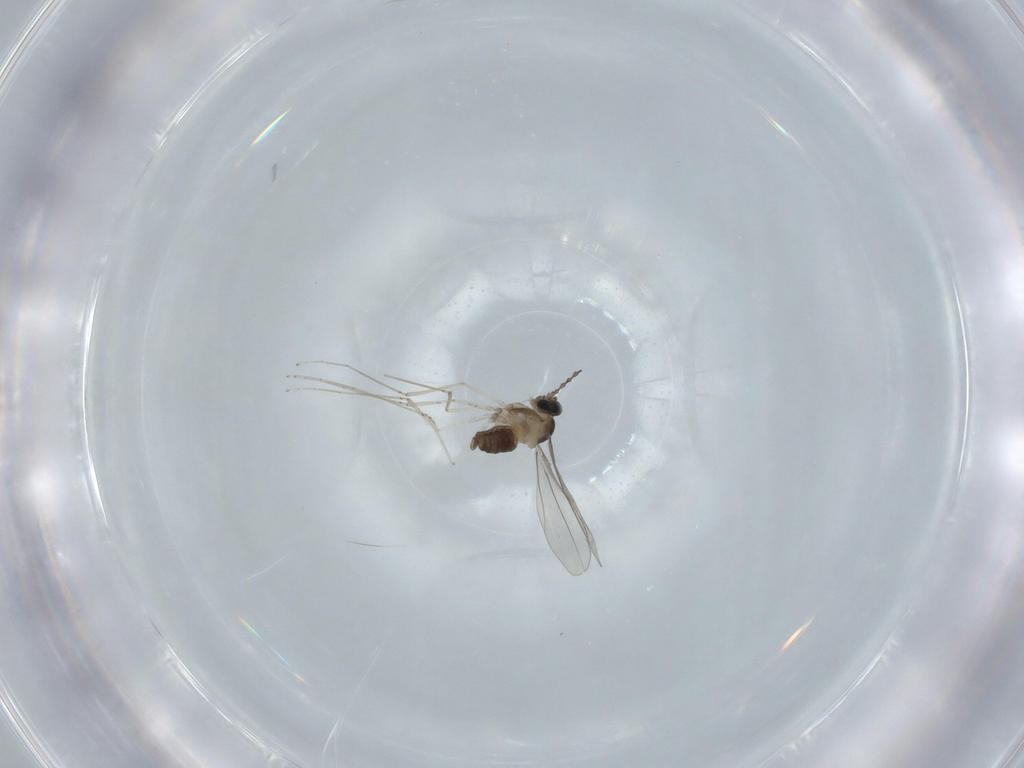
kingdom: Animalia
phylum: Arthropoda
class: Insecta
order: Diptera
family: Cecidomyiidae
